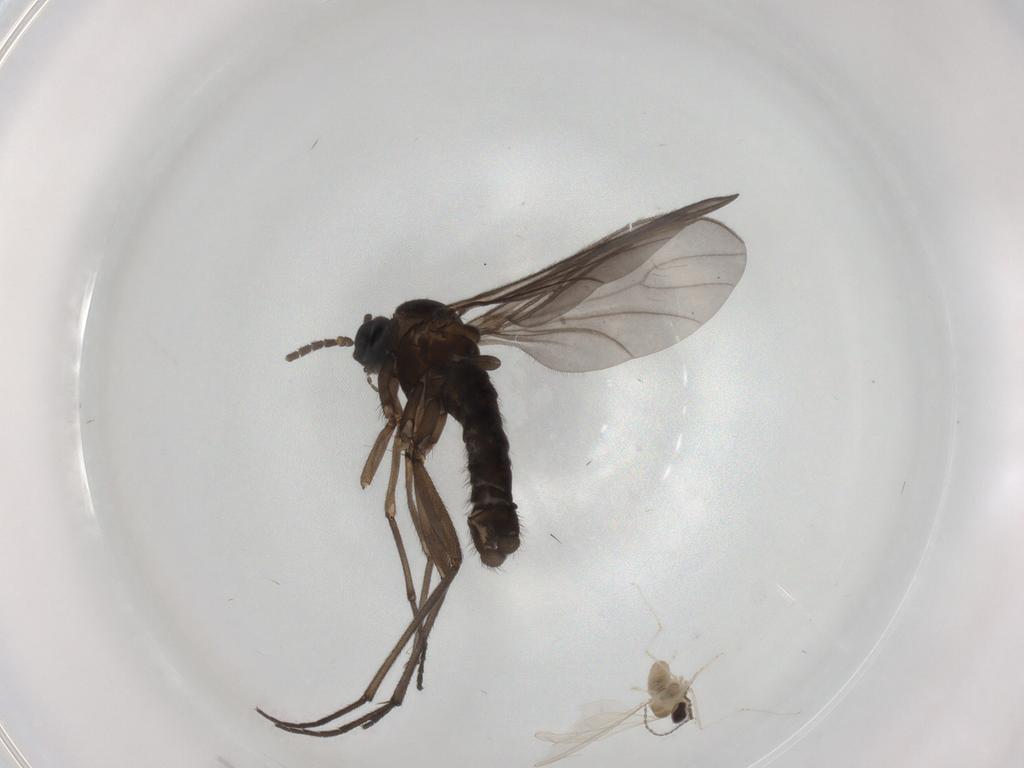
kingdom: Animalia
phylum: Arthropoda
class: Insecta
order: Diptera
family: Sciaridae
